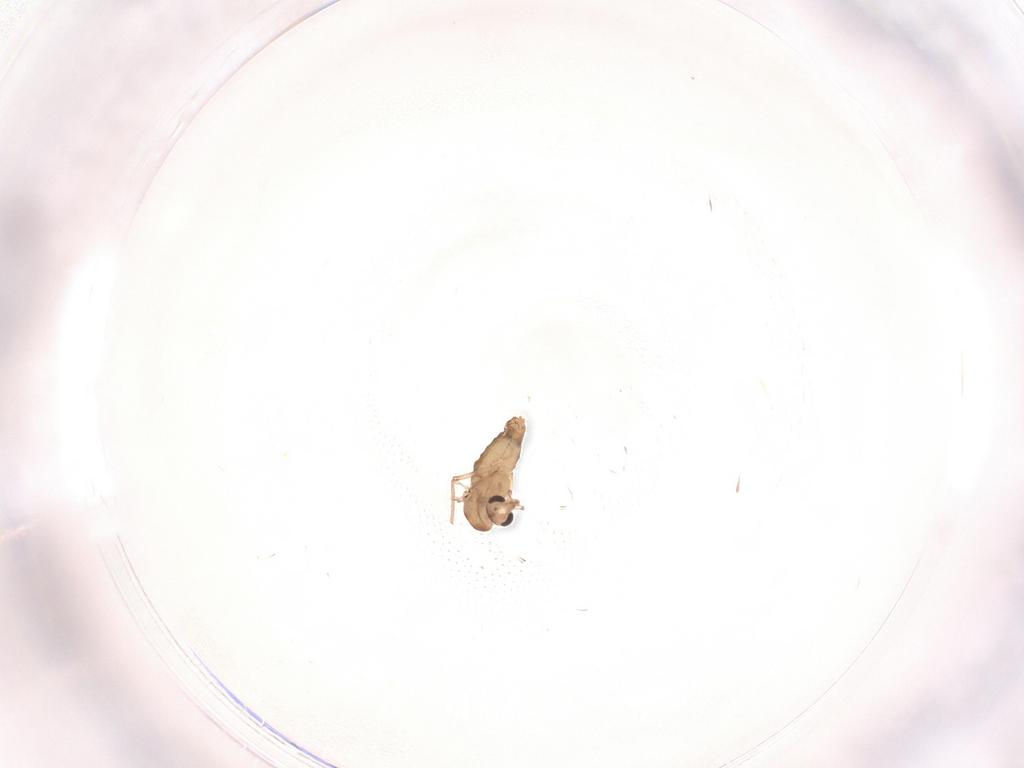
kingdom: Animalia
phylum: Arthropoda
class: Insecta
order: Diptera
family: Chironomidae
